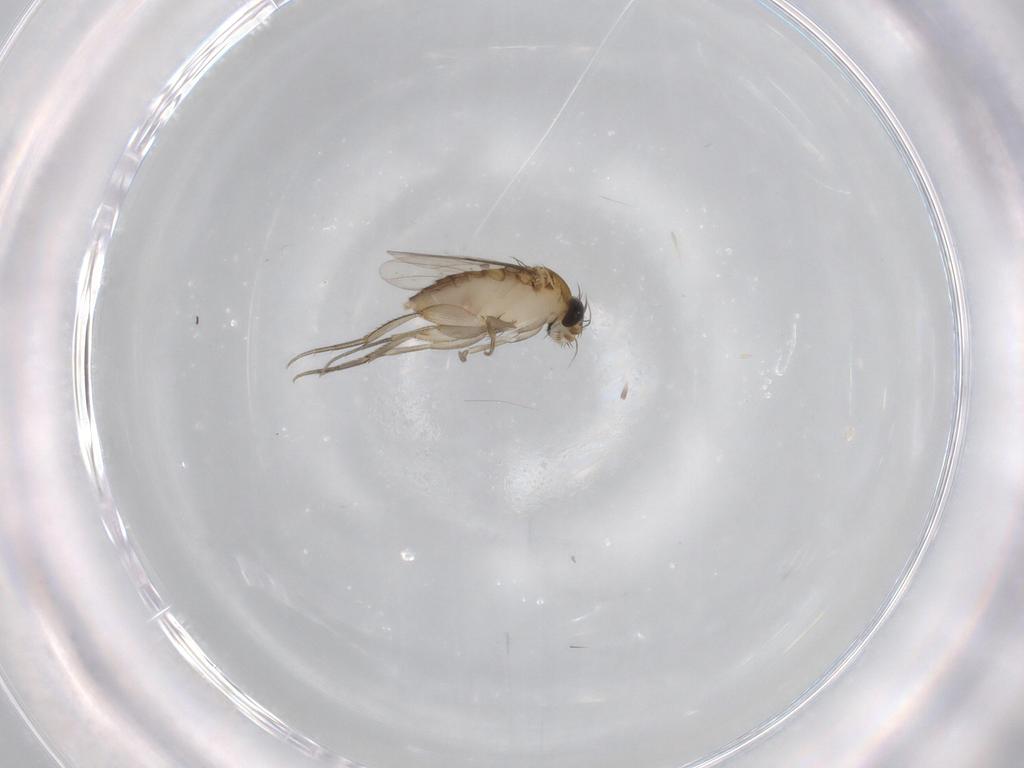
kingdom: Animalia
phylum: Arthropoda
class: Insecta
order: Diptera
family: Phoridae
